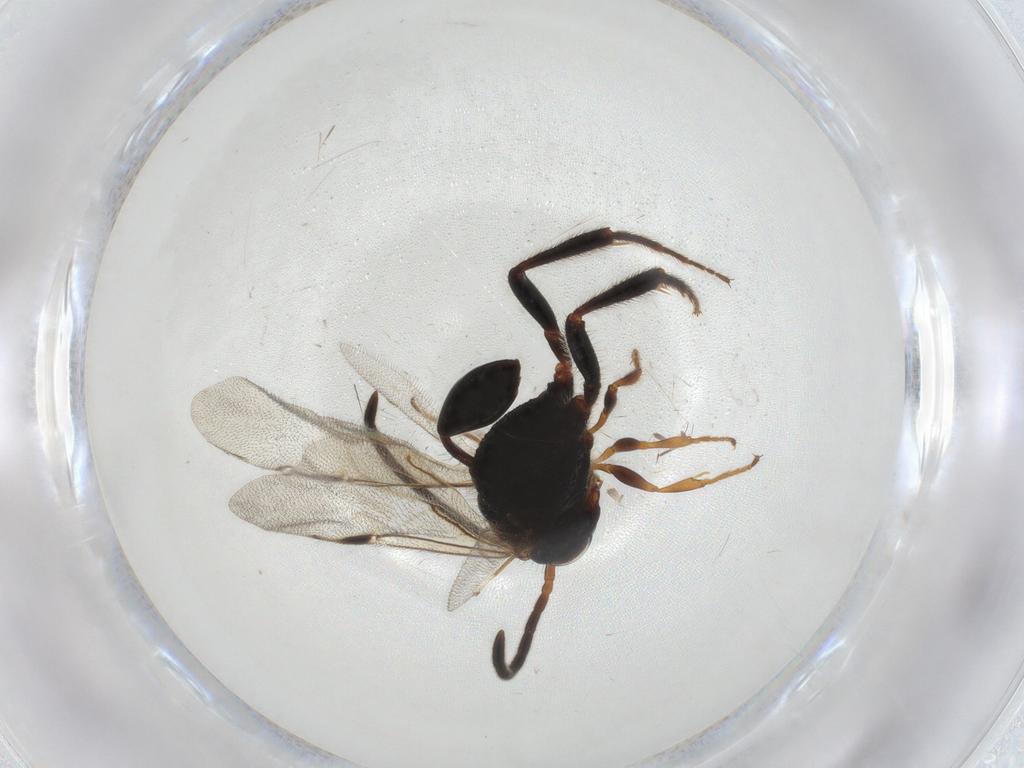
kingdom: Animalia
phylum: Arthropoda
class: Insecta
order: Hymenoptera
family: Evaniidae
